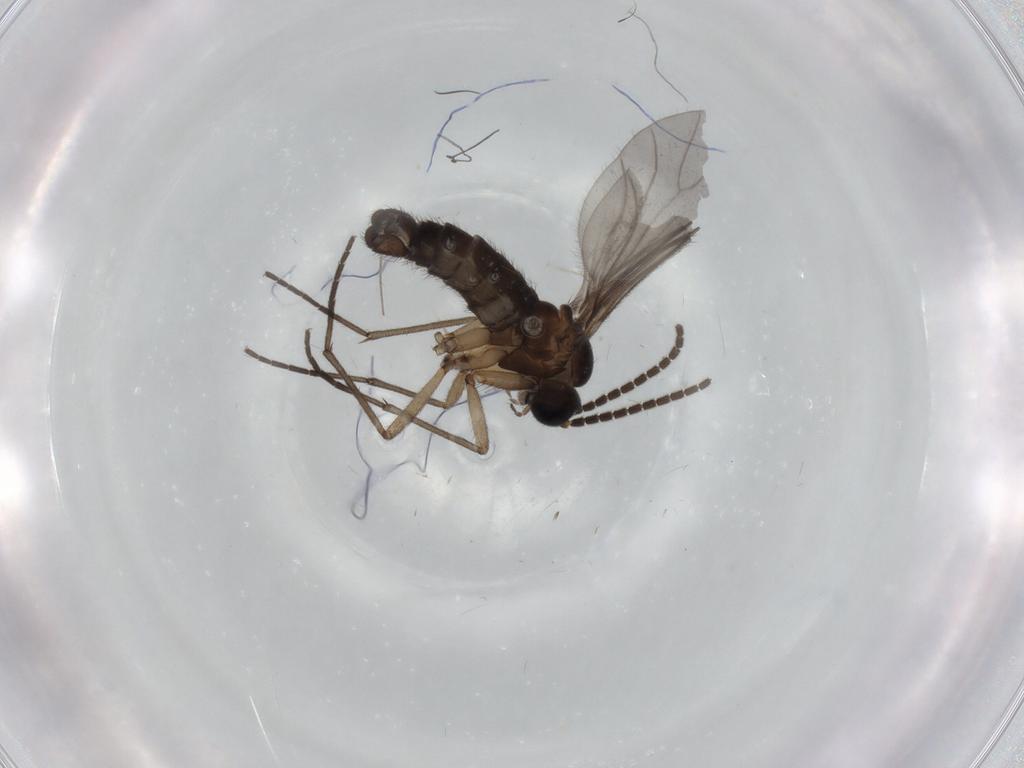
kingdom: Animalia
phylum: Arthropoda
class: Insecta
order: Diptera
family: Sciaridae
